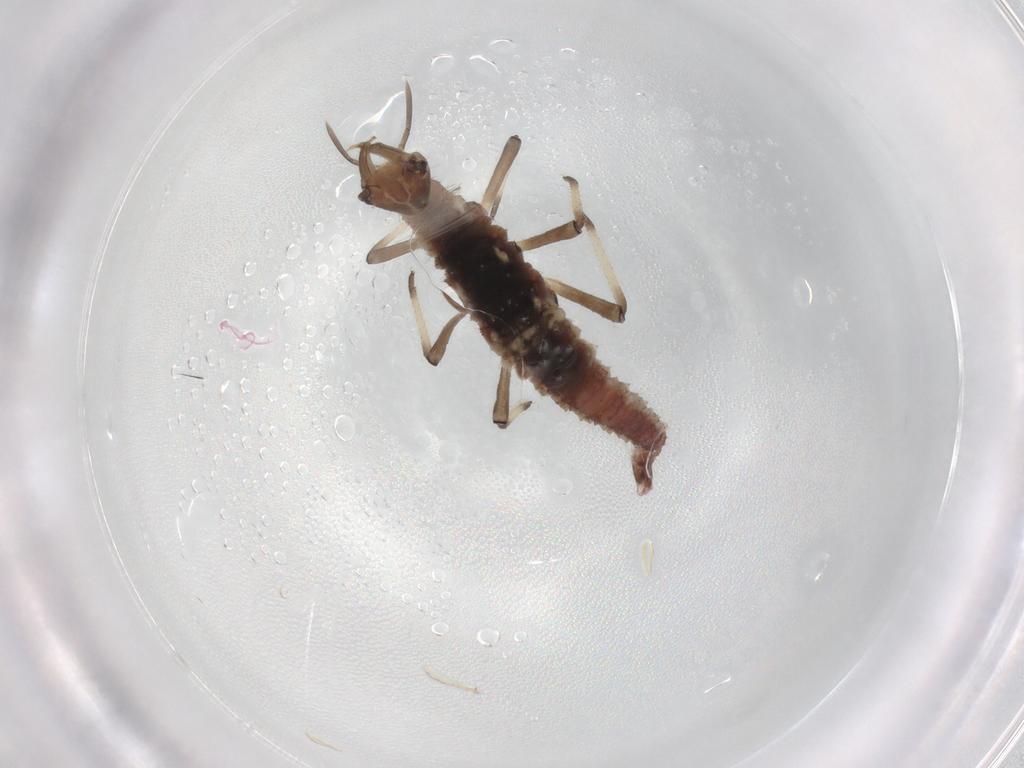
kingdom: Animalia
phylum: Arthropoda
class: Insecta
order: Neuroptera
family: Hemerobiidae
